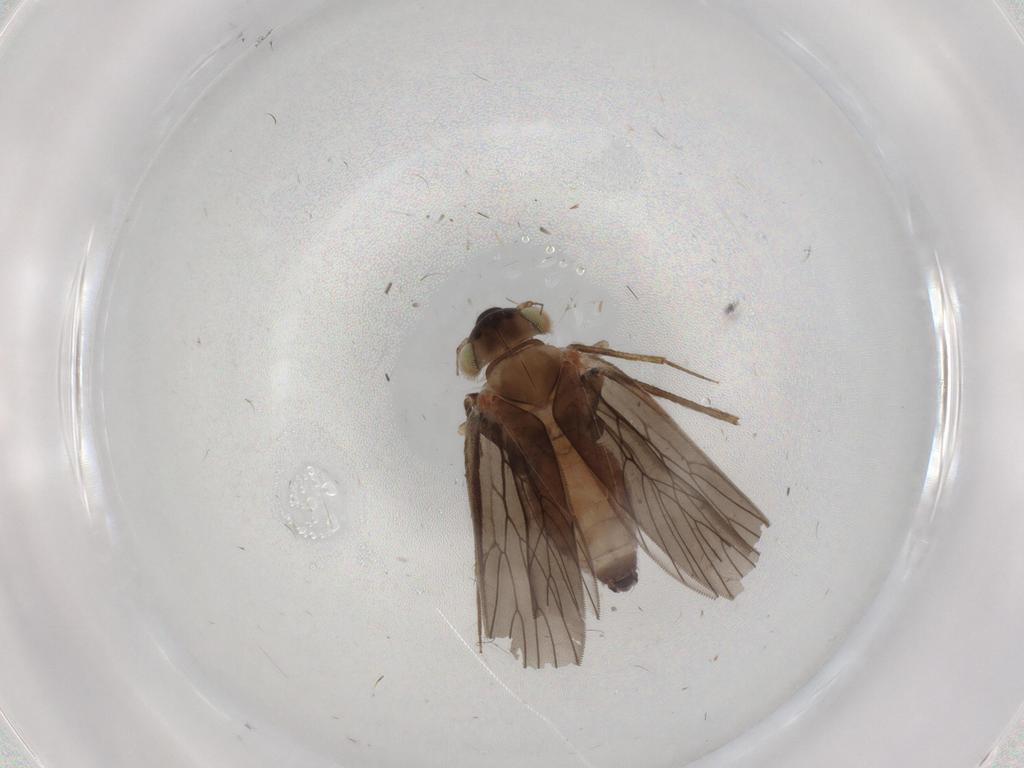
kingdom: Animalia
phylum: Arthropoda
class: Insecta
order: Psocodea
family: Lepidopsocidae
